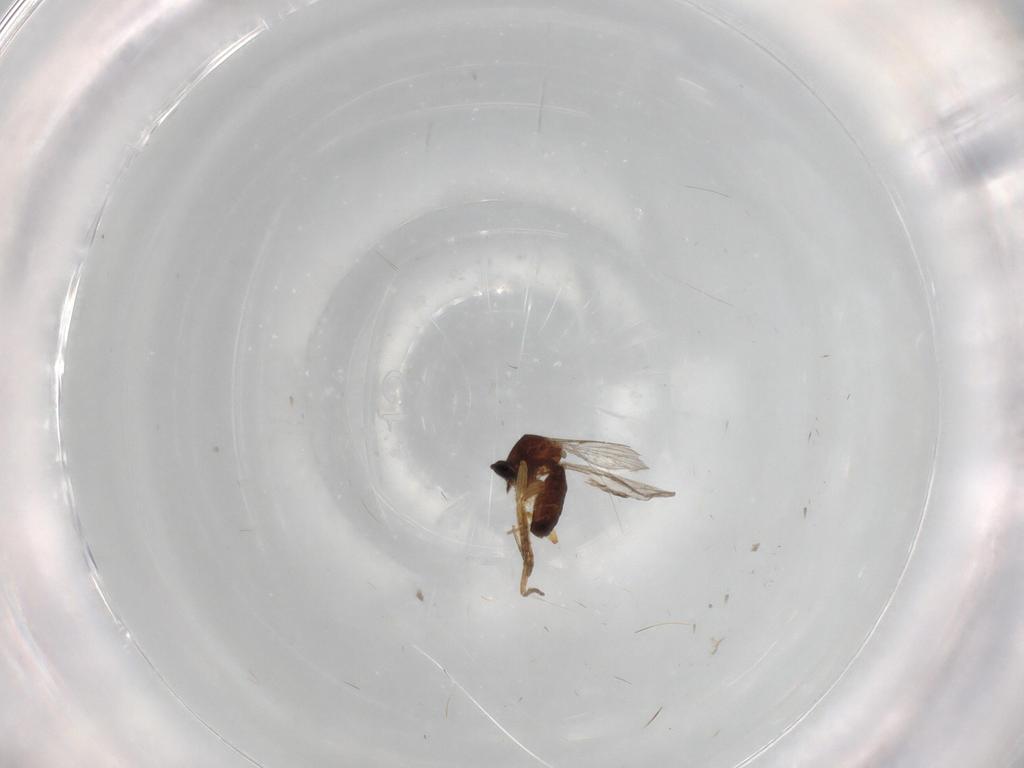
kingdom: Animalia
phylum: Arthropoda
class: Insecta
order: Diptera
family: Ceratopogonidae
